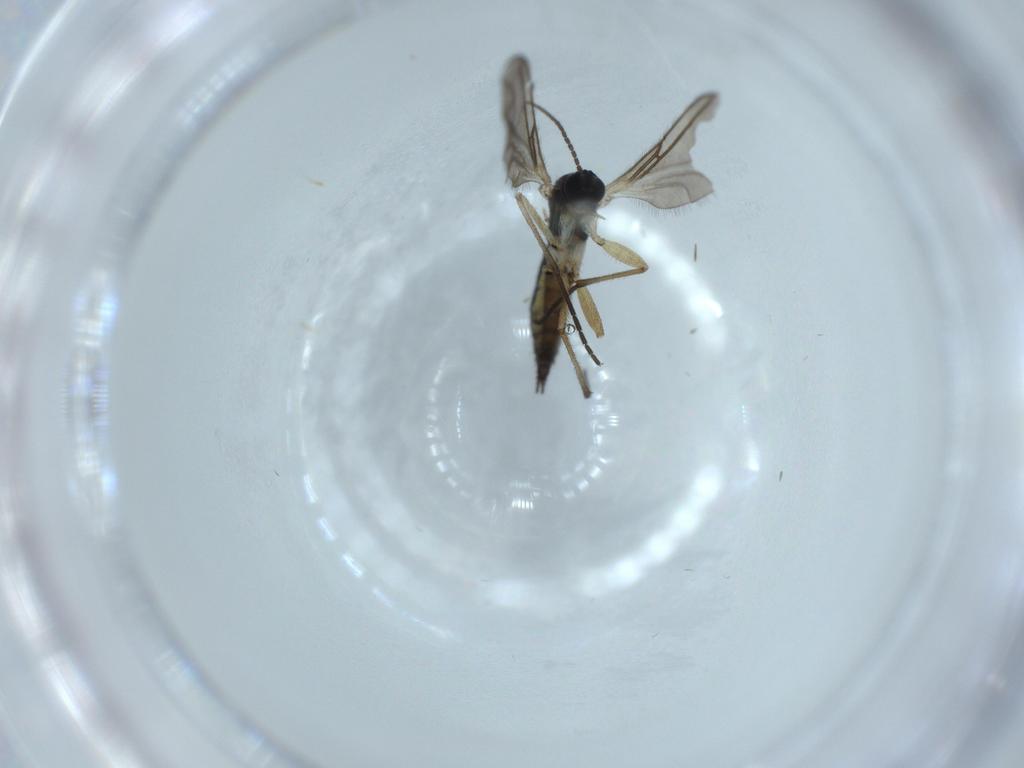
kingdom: Animalia
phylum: Arthropoda
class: Insecta
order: Diptera
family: Sciaridae
